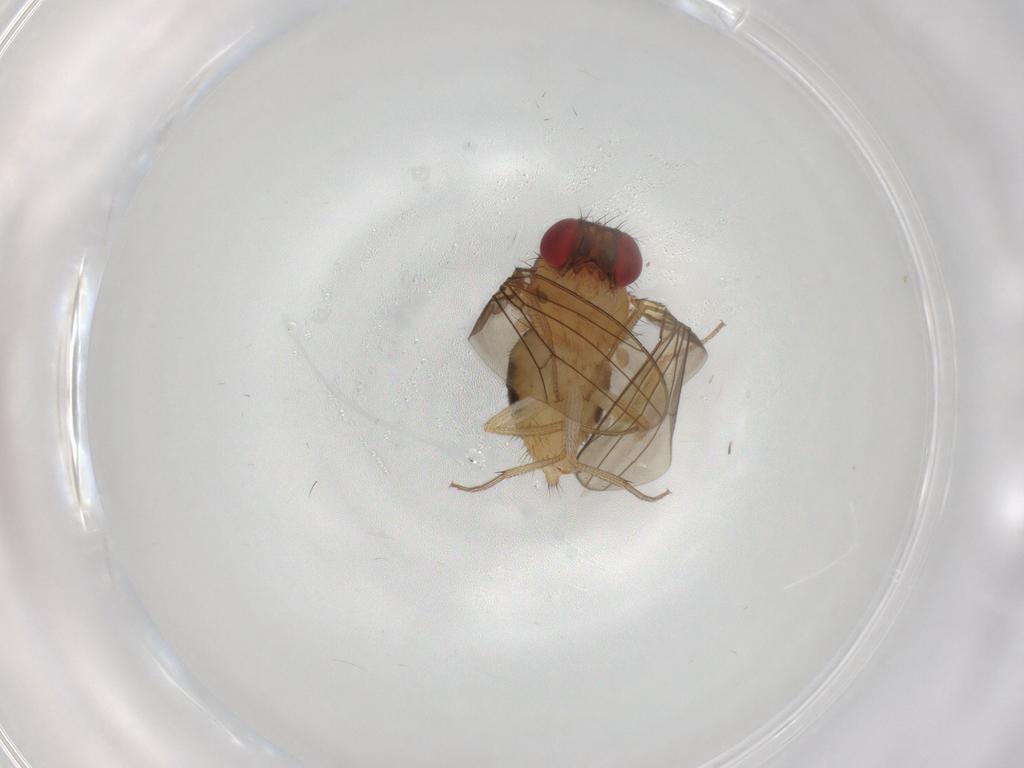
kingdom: Animalia
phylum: Arthropoda
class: Insecta
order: Diptera
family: Drosophilidae
